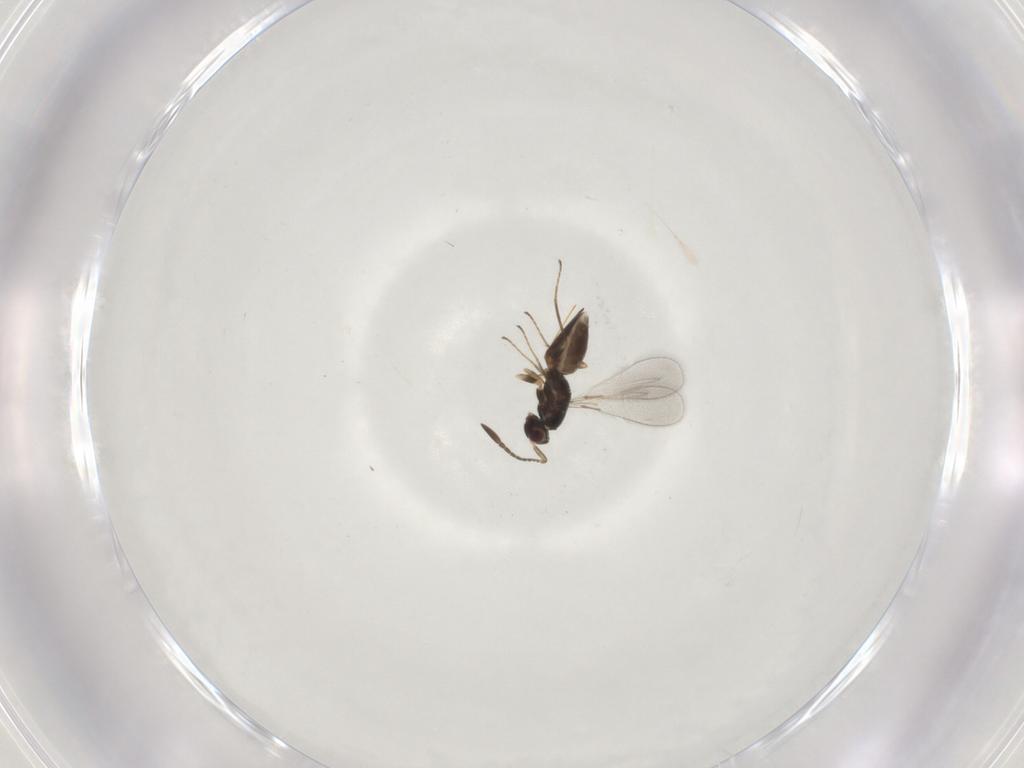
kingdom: Animalia
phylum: Arthropoda
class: Insecta
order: Hymenoptera
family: Mymaridae
